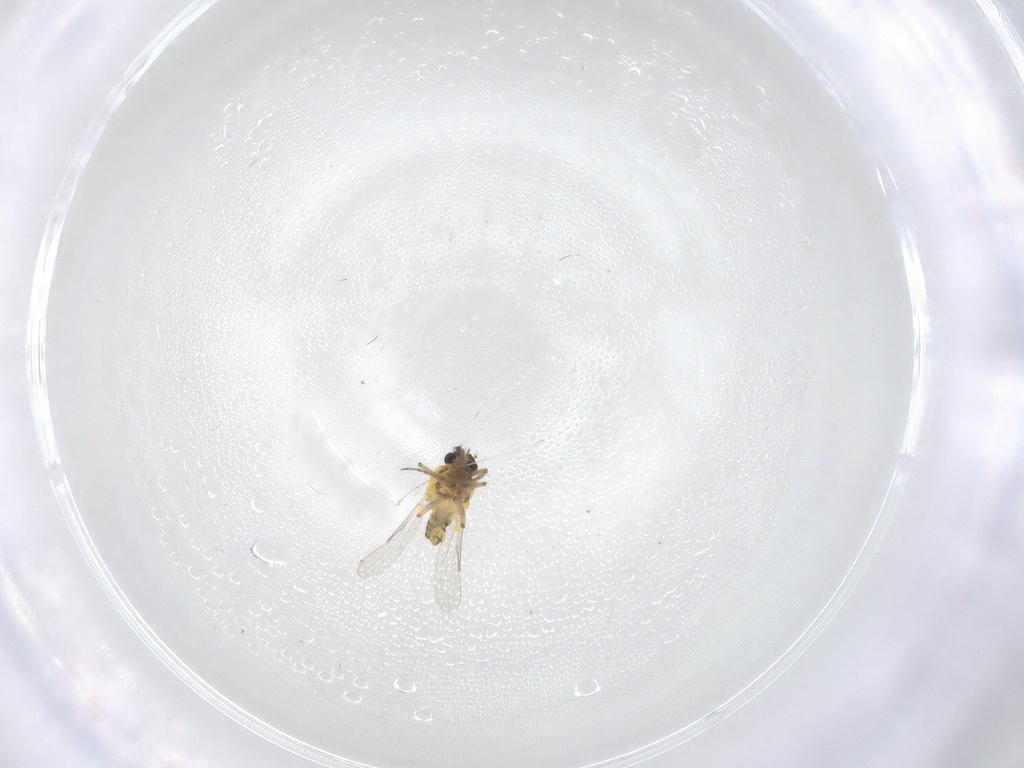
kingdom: Animalia
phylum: Arthropoda
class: Insecta
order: Diptera
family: Ceratopogonidae
